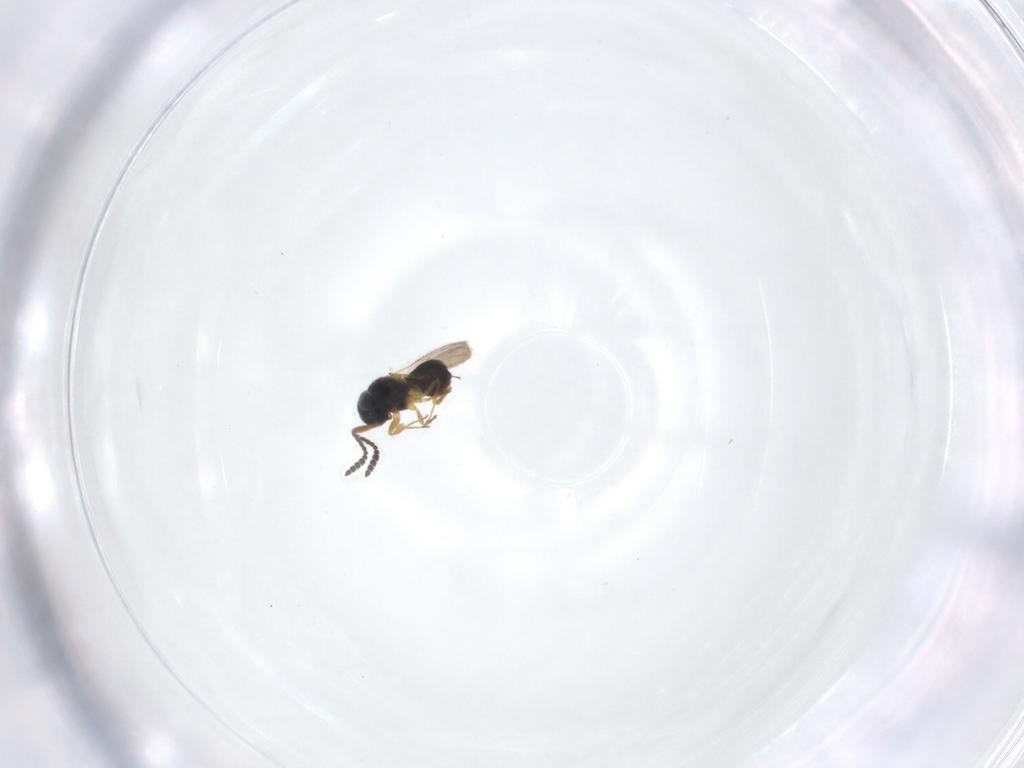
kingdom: Animalia
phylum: Arthropoda
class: Insecta
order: Hymenoptera
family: Scelionidae
